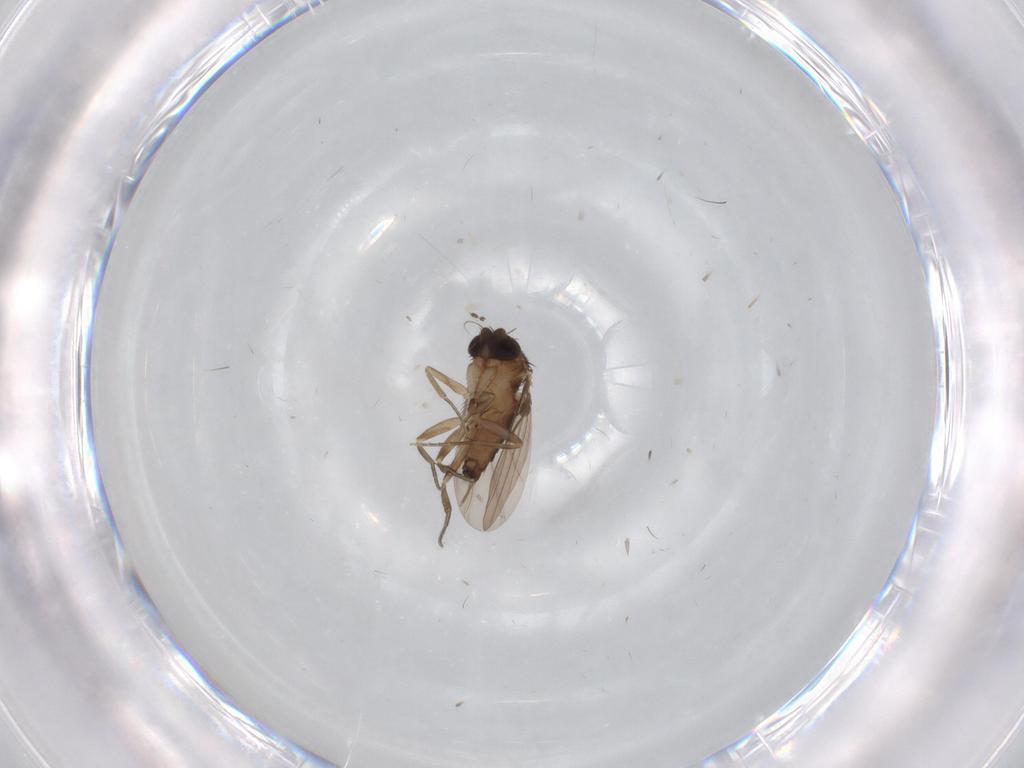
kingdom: Animalia
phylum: Arthropoda
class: Insecta
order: Diptera
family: Phoridae
